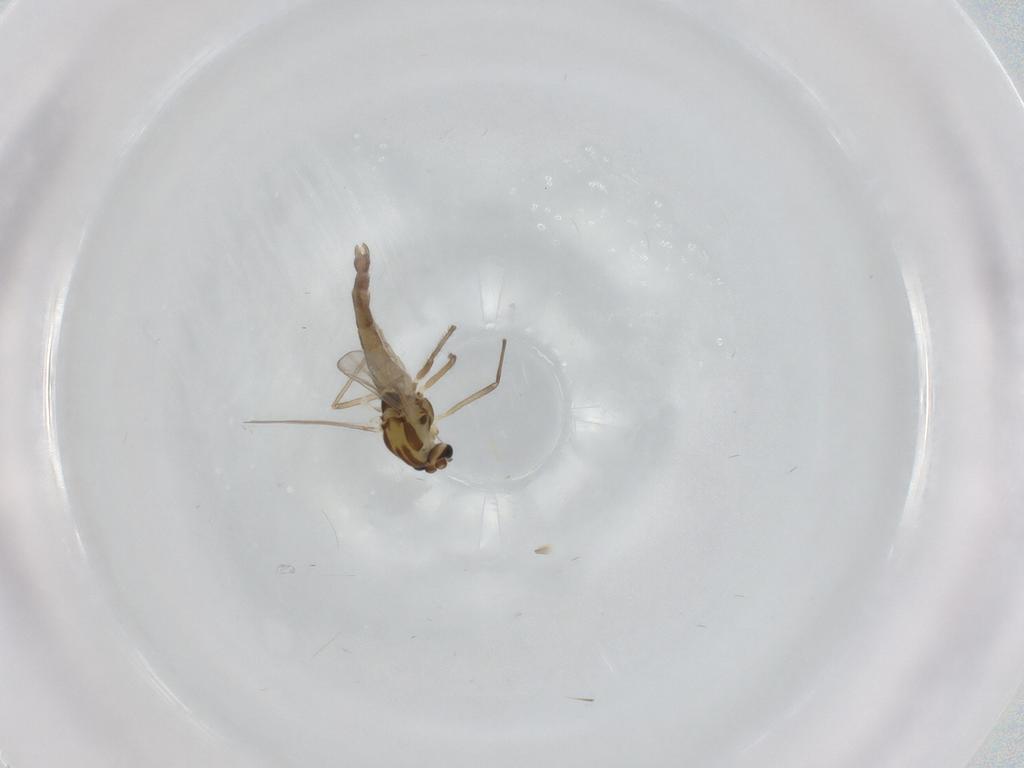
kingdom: Animalia
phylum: Arthropoda
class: Insecta
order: Diptera
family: Chironomidae
